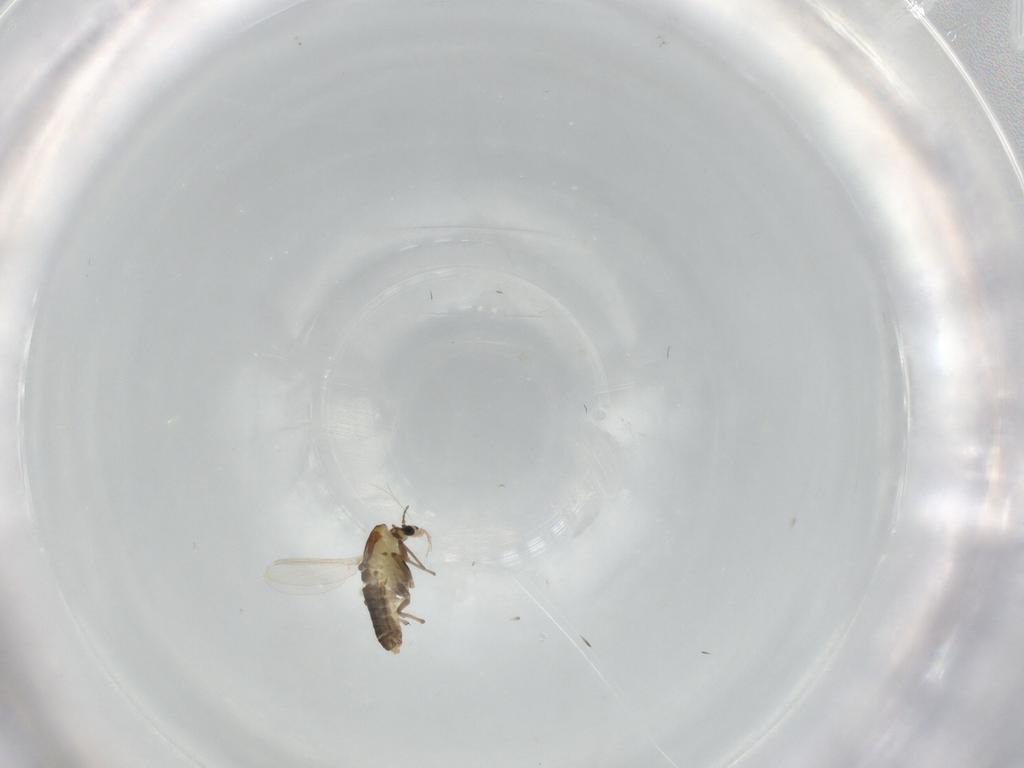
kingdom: Animalia
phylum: Arthropoda
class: Insecta
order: Diptera
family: Chironomidae
